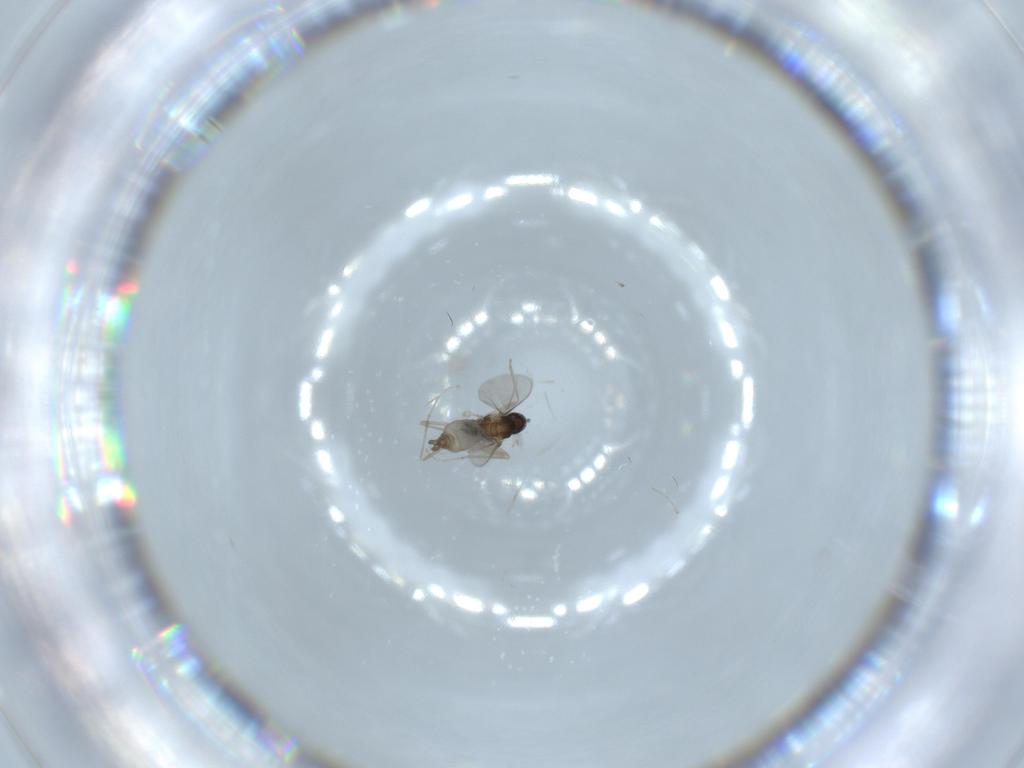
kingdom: Animalia
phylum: Arthropoda
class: Insecta
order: Diptera
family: Cecidomyiidae
